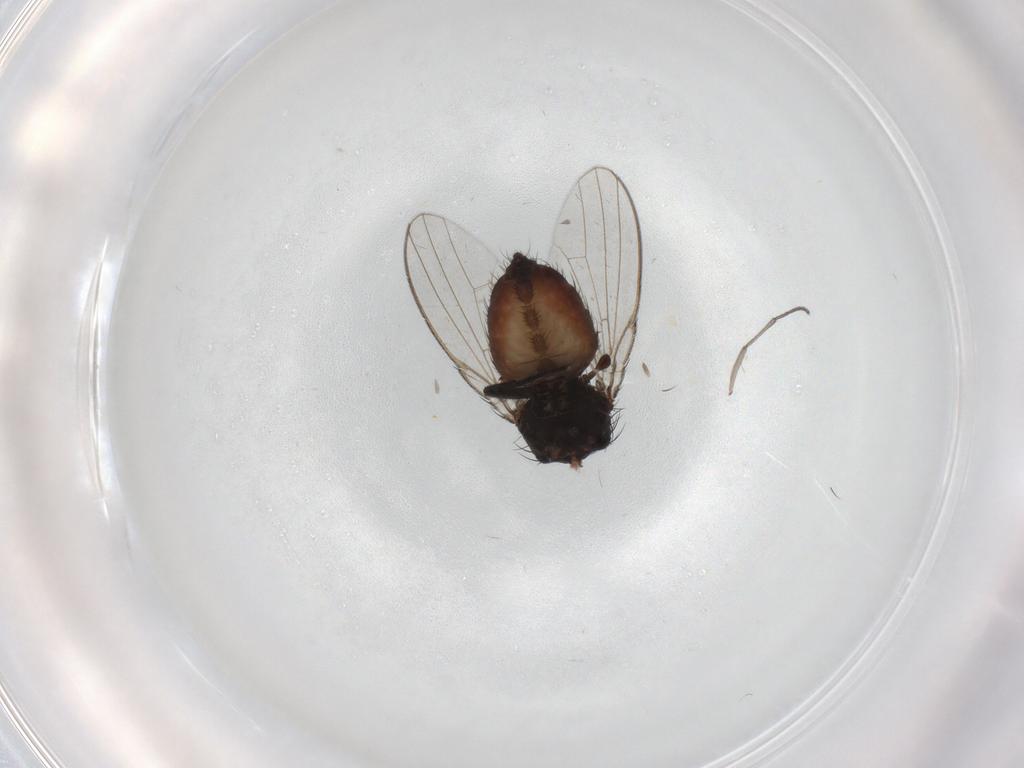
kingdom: Animalia
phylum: Arthropoda
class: Insecta
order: Diptera
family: Milichiidae
